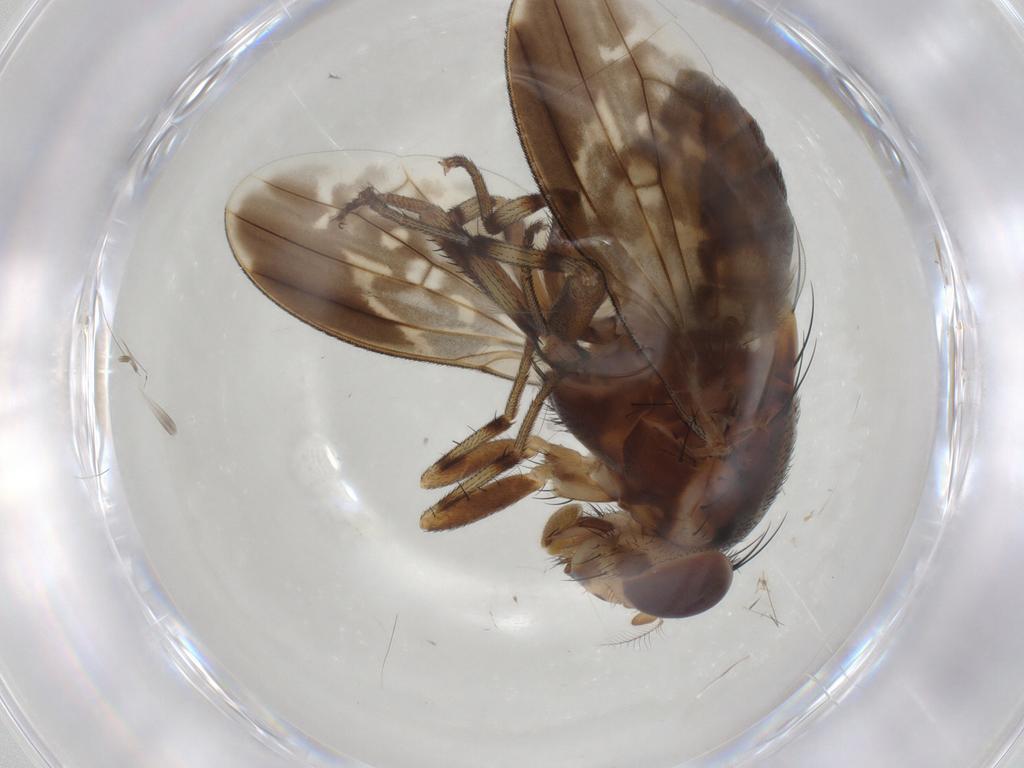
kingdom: Animalia
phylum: Arthropoda
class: Insecta
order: Diptera
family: Lauxaniidae
